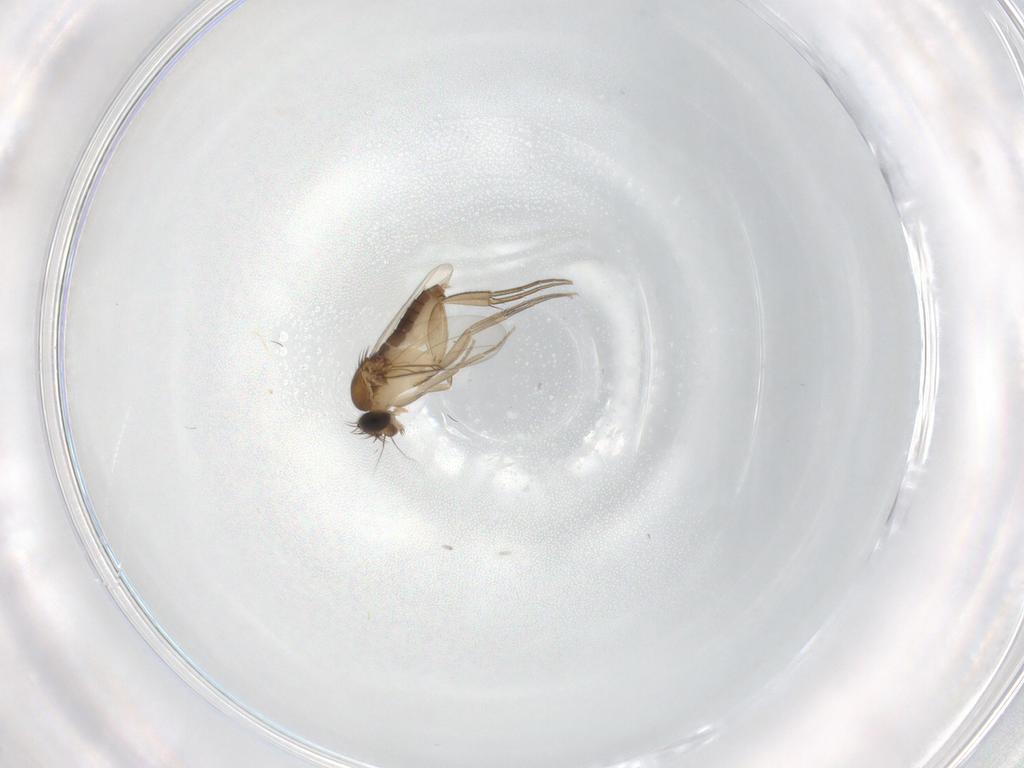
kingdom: Animalia
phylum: Arthropoda
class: Insecta
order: Diptera
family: Phoridae
